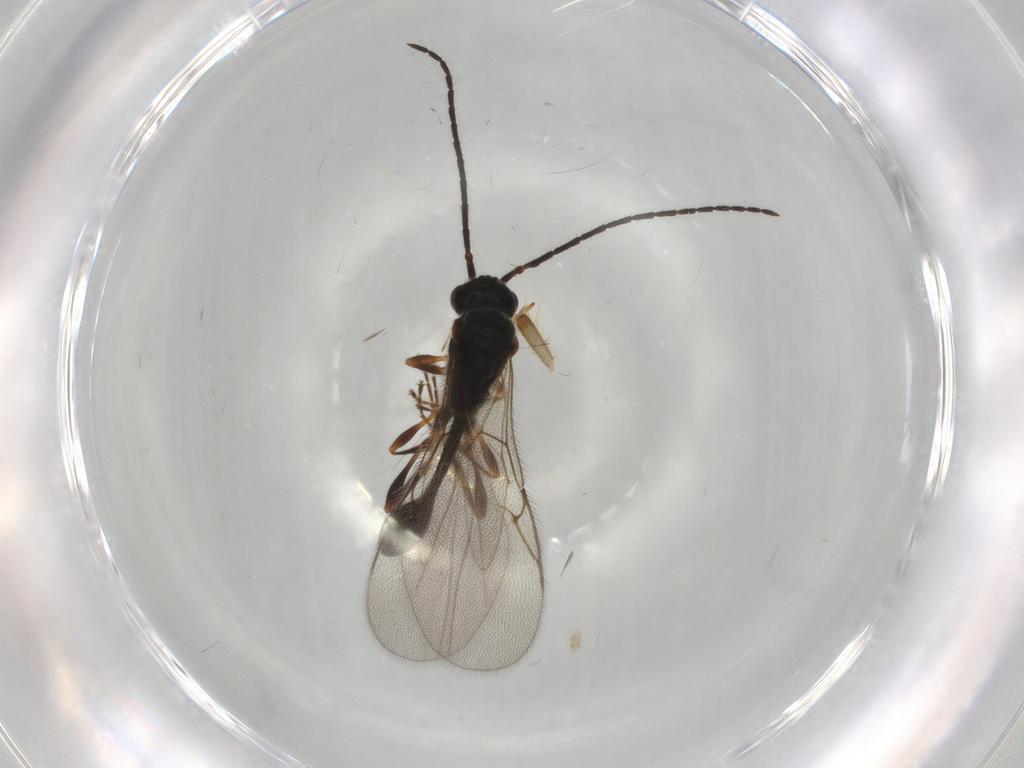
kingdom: Animalia
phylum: Arthropoda
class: Insecta
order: Hymenoptera
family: Diapriidae
